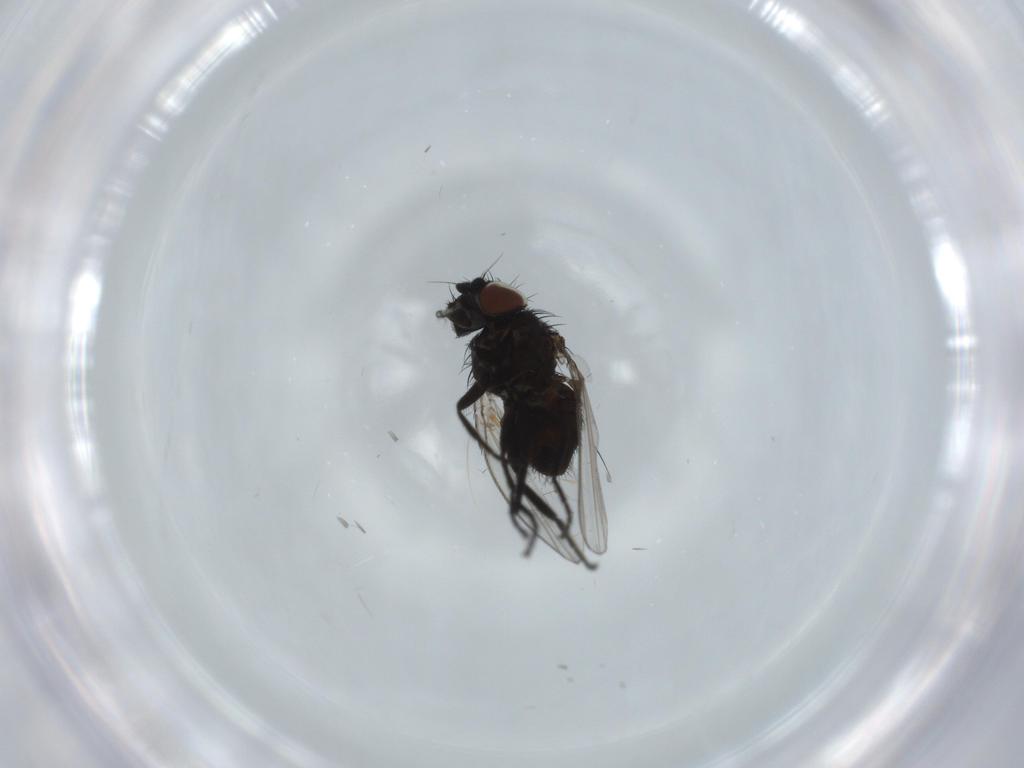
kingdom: Animalia
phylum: Arthropoda
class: Insecta
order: Diptera
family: Milichiidae
